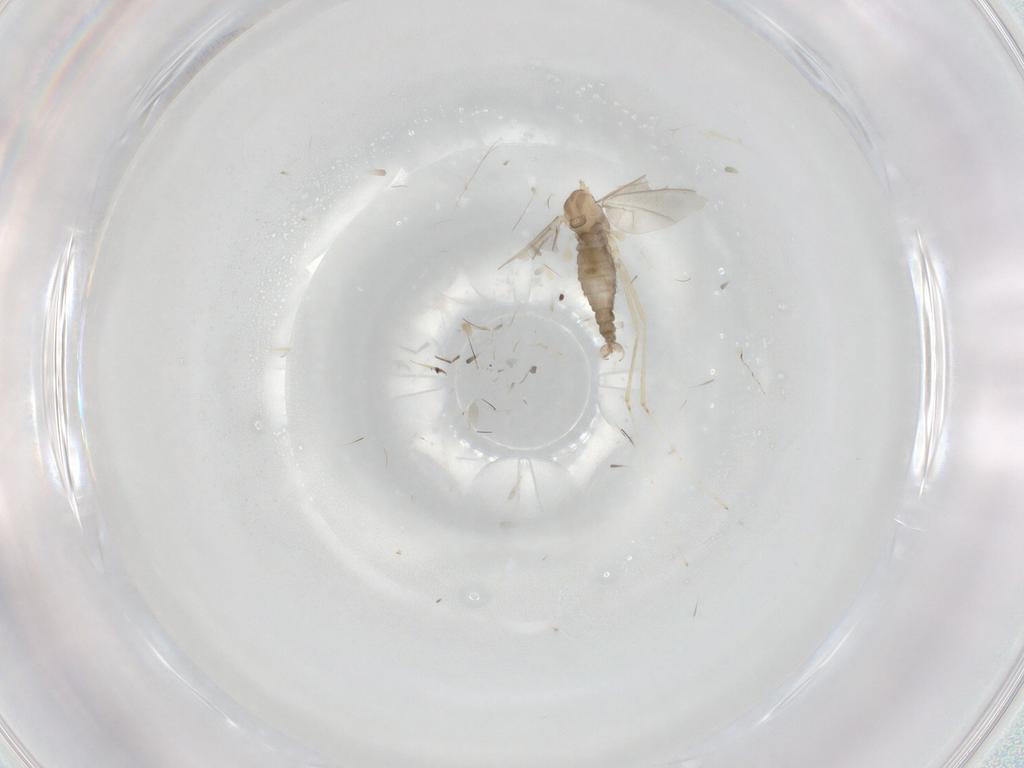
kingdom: Animalia
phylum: Arthropoda
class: Insecta
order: Diptera
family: Cecidomyiidae
